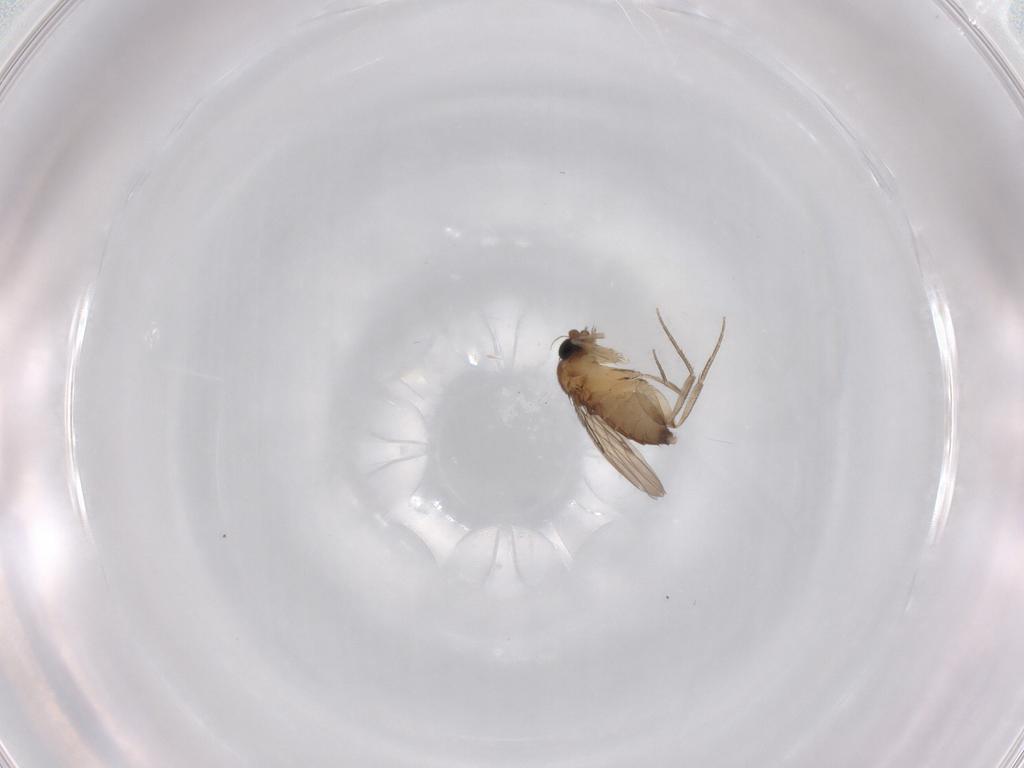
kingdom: Animalia
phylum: Arthropoda
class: Insecta
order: Diptera
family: Phoridae
